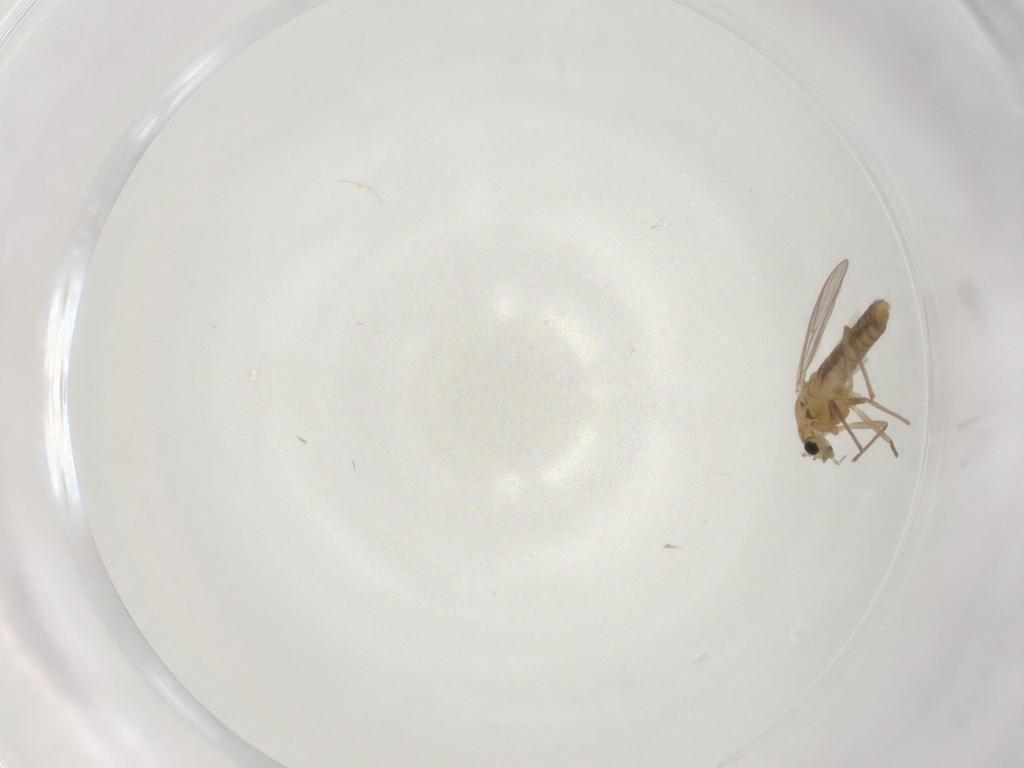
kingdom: Animalia
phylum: Arthropoda
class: Insecta
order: Diptera
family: Chironomidae
